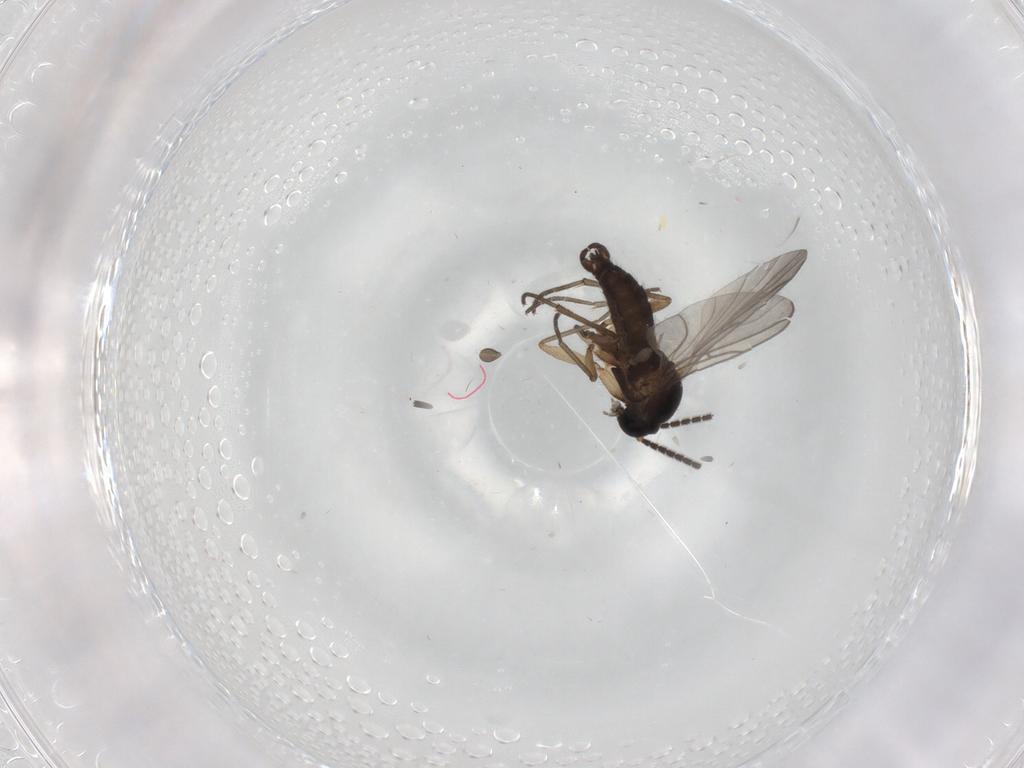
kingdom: Animalia
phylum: Arthropoda
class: Insecta
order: Diptera
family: Sciaridae
